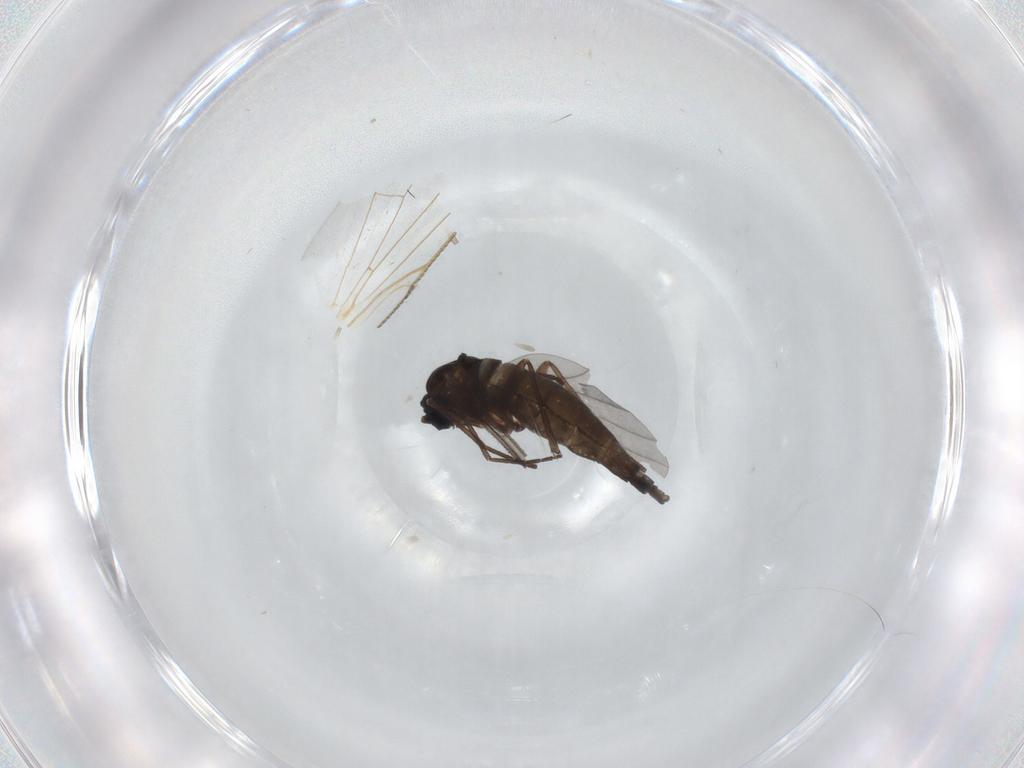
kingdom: Animalia
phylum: Arthropoda
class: Insecta
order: Diptera
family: Sciaridae
